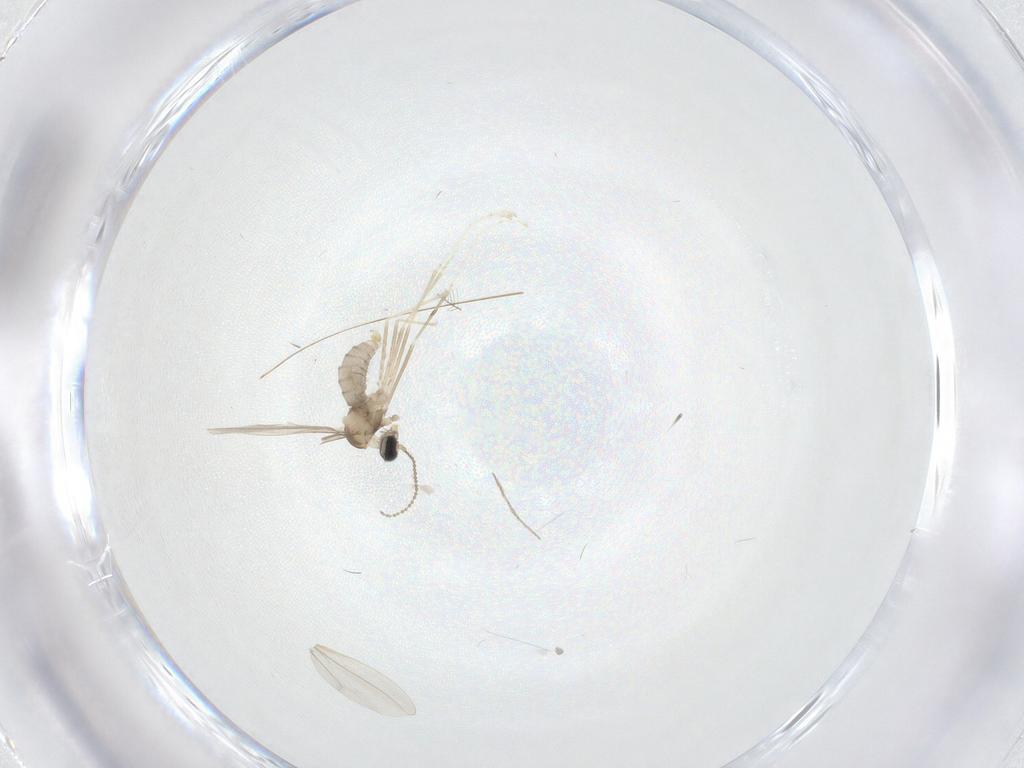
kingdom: Animalia
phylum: Arthropoda
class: Insecta
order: Diptera
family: Cecidomyiidae
